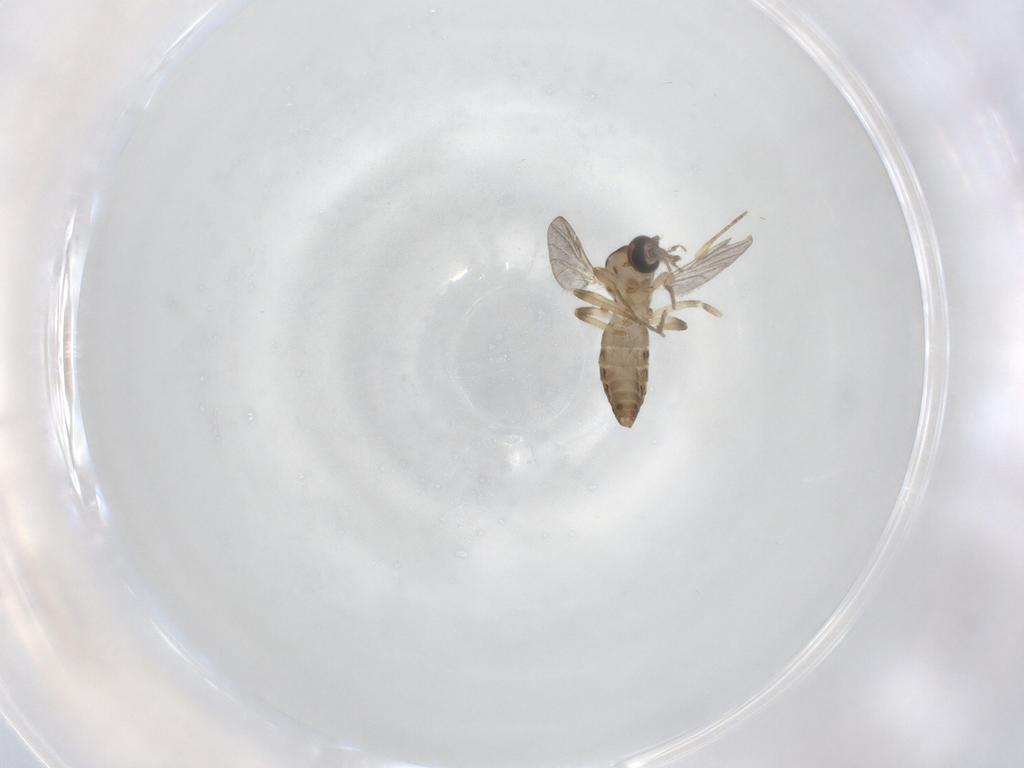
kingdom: Animalia
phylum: Arthropoda
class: Insecta
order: Diptera
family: Ceratopogonidae
